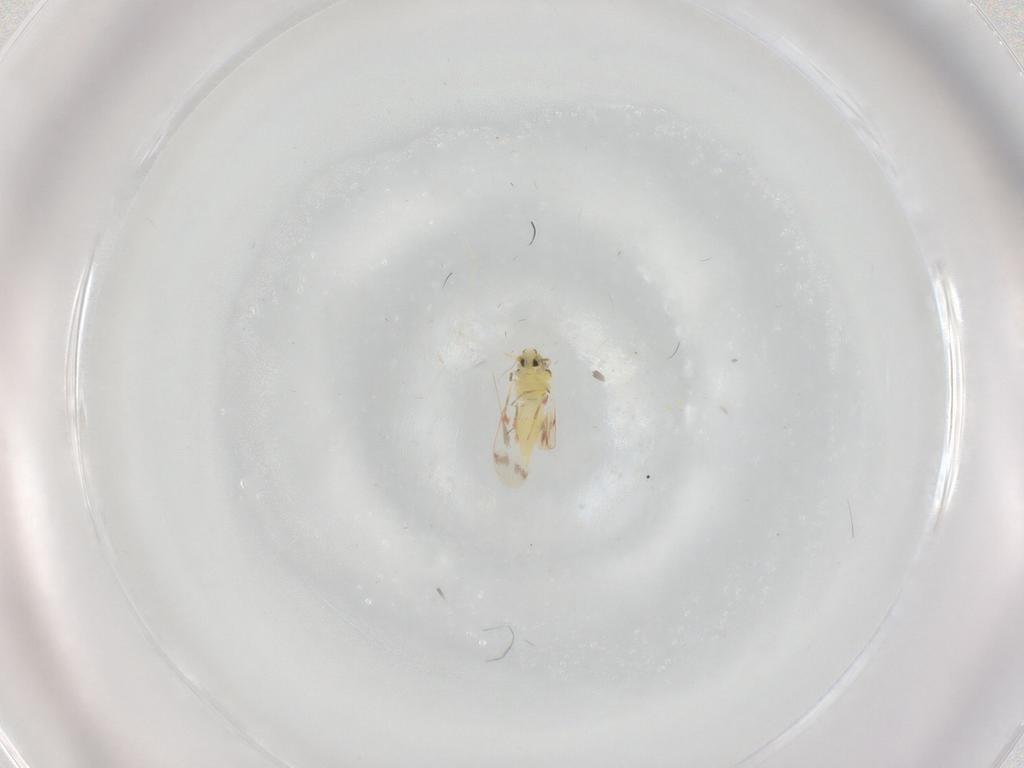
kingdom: Animalia
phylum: Arthropoda
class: Insecta
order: Hemiptera
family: Aleyrodidae
